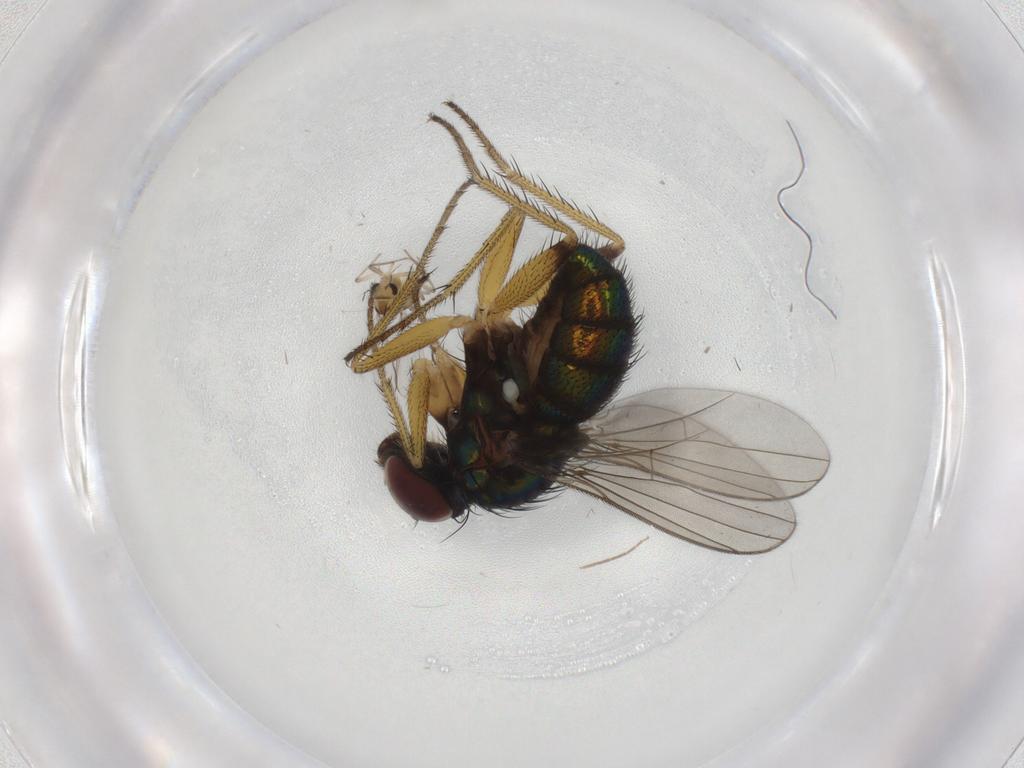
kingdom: Animalia
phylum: Arthropoda
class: Insecta
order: Diptera
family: Dolichopodidae
